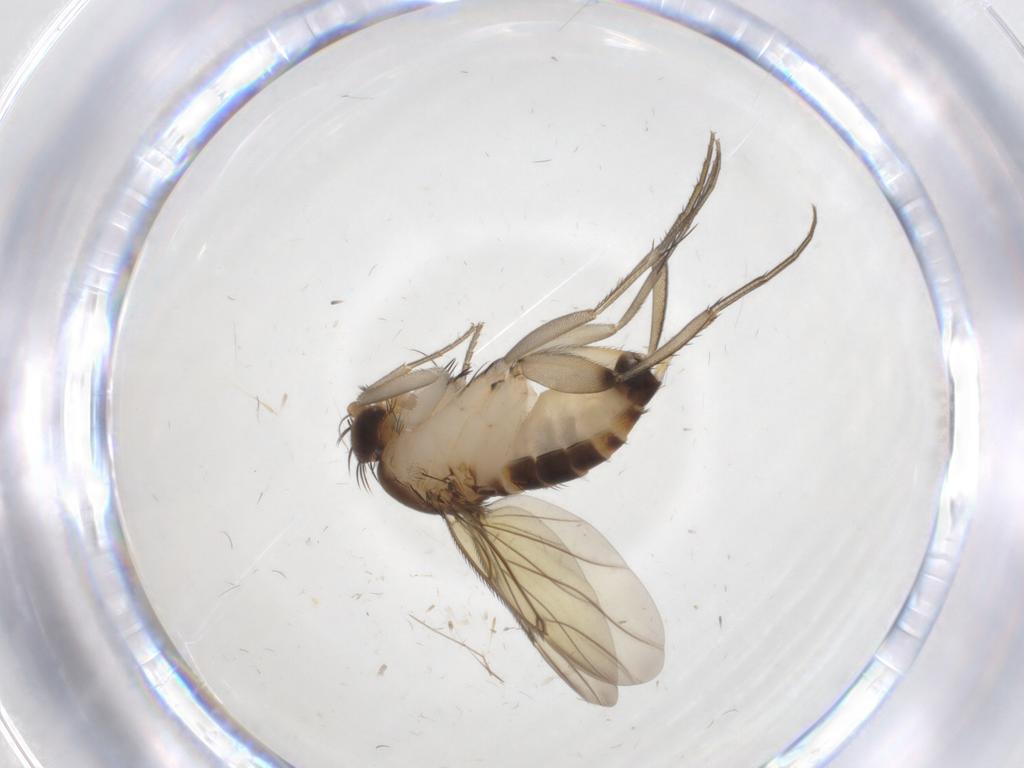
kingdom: Animalia
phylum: Arthropoda
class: Insecta
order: Diptera
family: Phoridae
